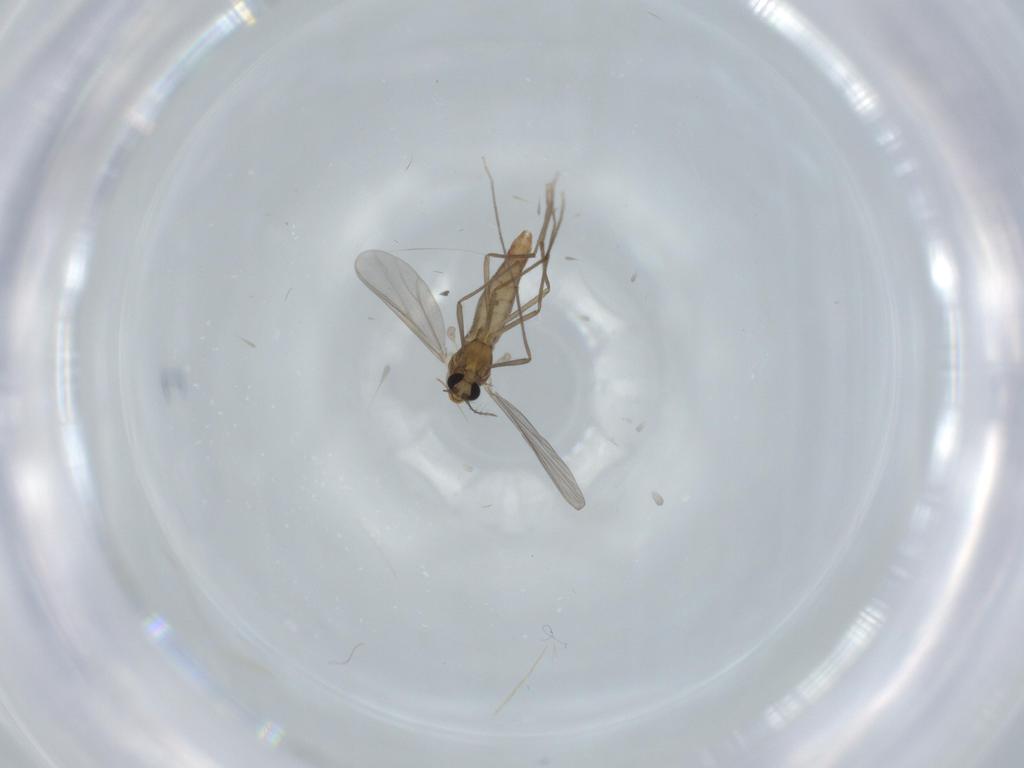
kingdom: Animalia
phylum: Arthropoda
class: Insecta
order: Diptera
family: Chironomidae
